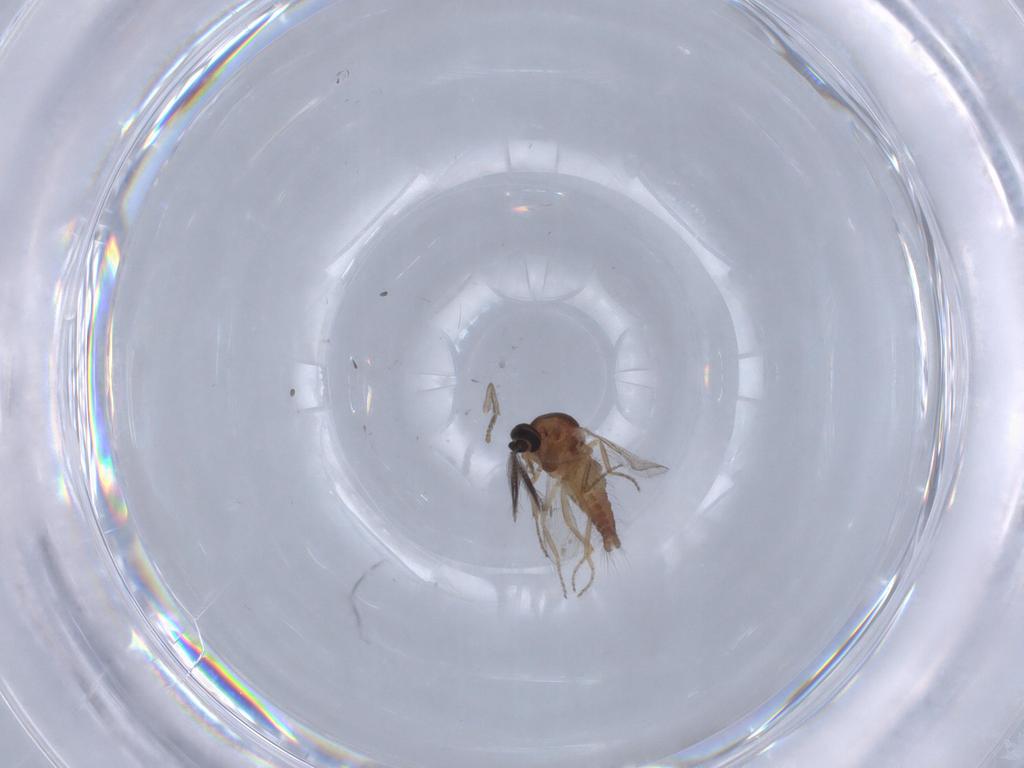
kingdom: Animalia
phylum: Arthropoda
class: Insecta
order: Diptera
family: Ceratopogonidae
